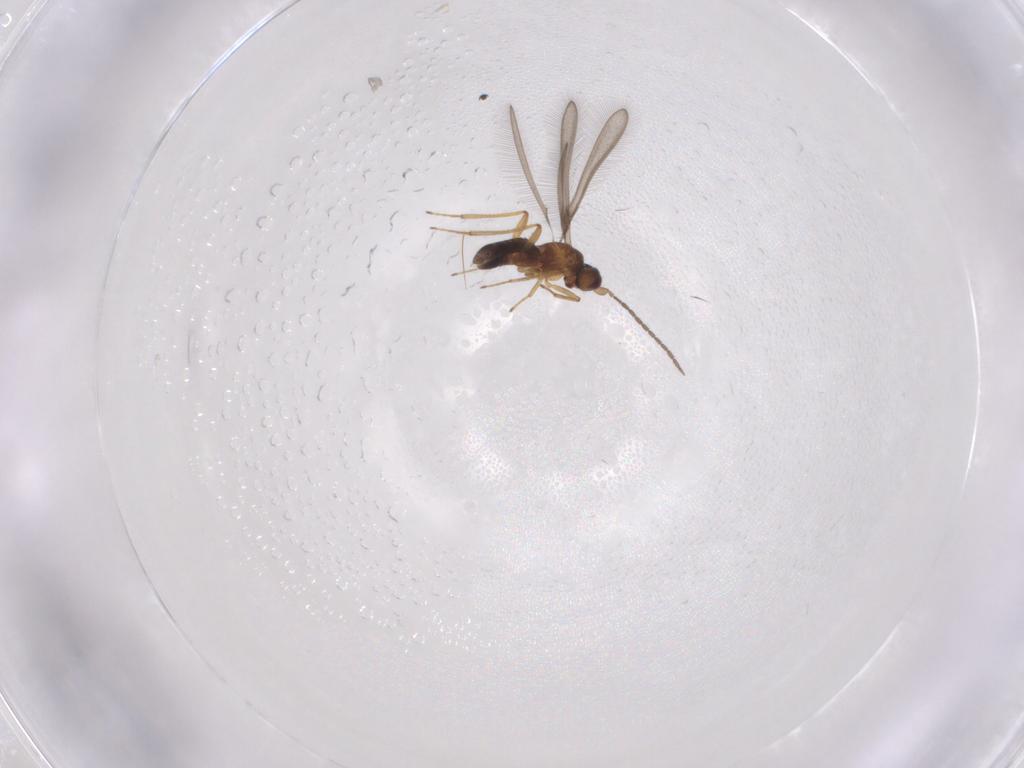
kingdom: Animalia
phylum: Arthropoda
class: Insecta
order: Hymenoptera
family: Mymaridae
